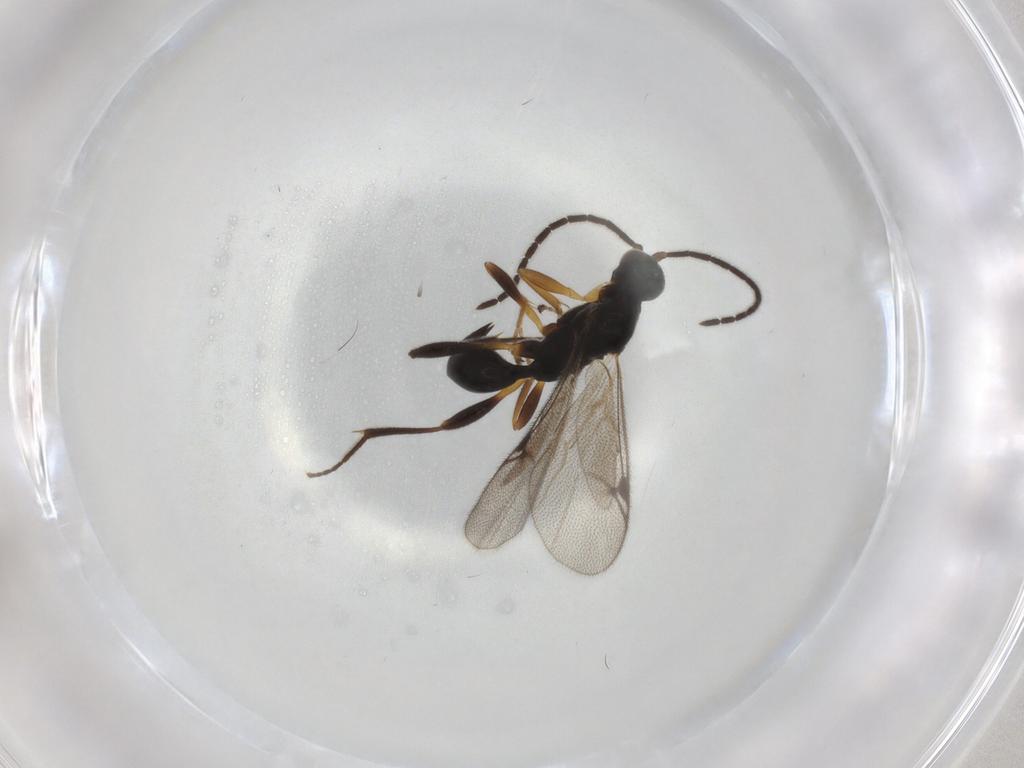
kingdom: Animalia
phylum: Arthropoda
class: Insecta
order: Hymenoptera
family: Proctotrupidae
